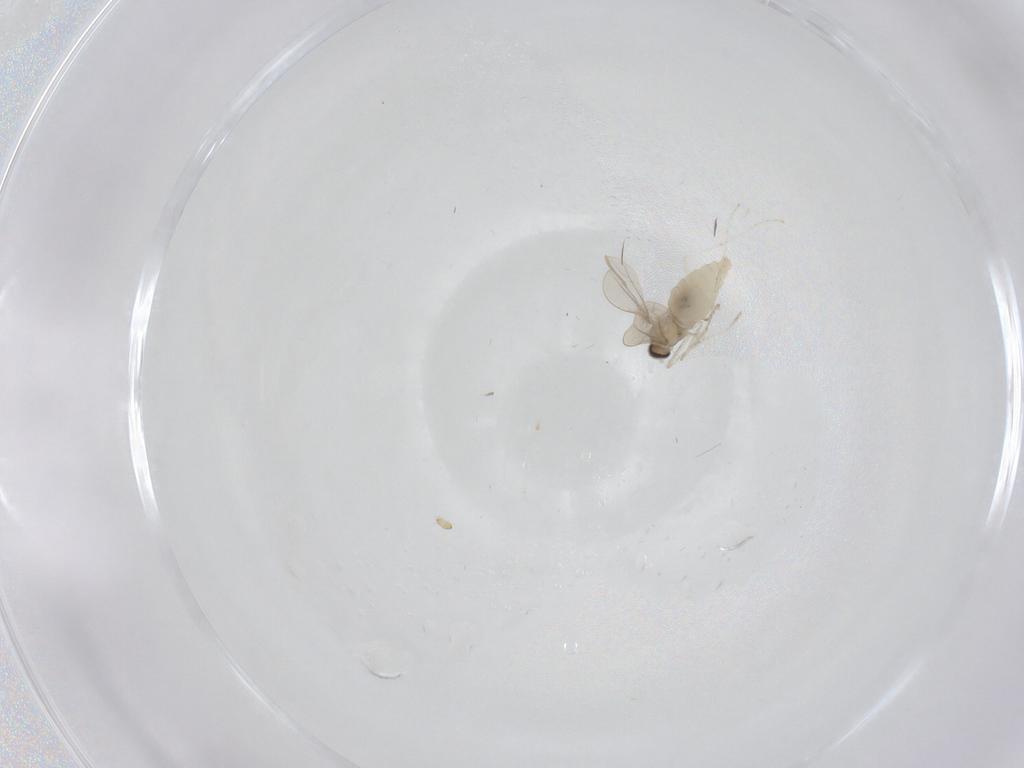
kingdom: Animalia
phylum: Arthropoda
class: Insecta
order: Diptera
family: Cecidomyiidae
